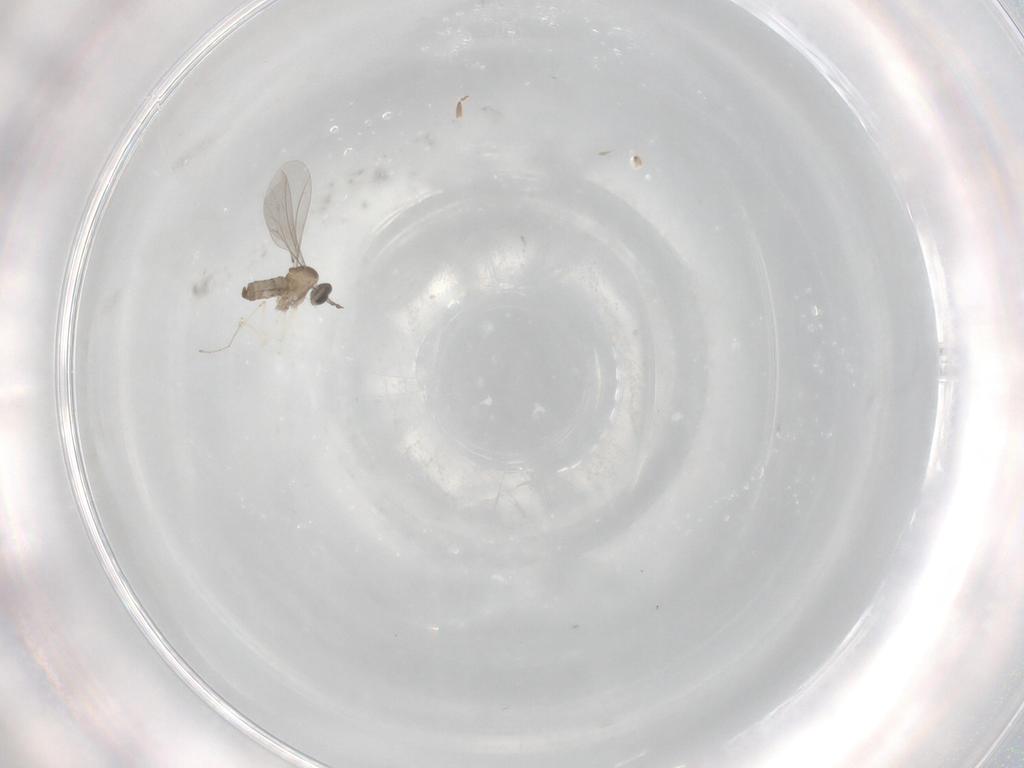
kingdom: Animalia
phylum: Arthropoda
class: Insecta
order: Diptera
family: Cecidomyiidae
